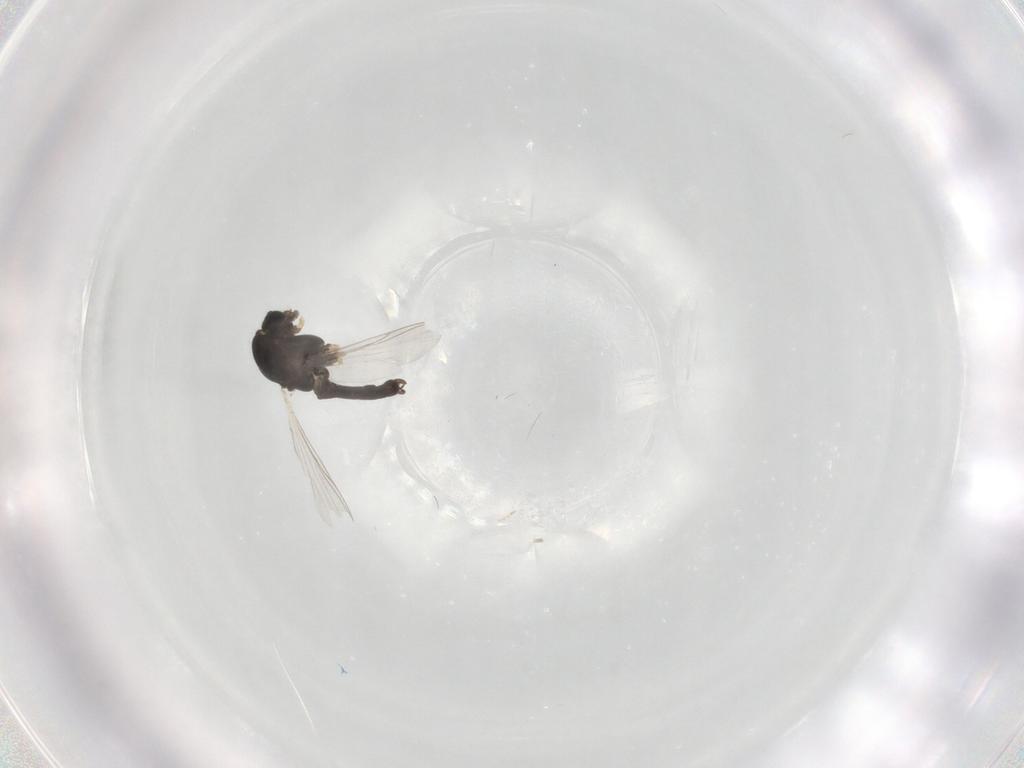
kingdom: Animalia
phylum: Arthropoda
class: Insecta
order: Diptera
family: Chironomidae
